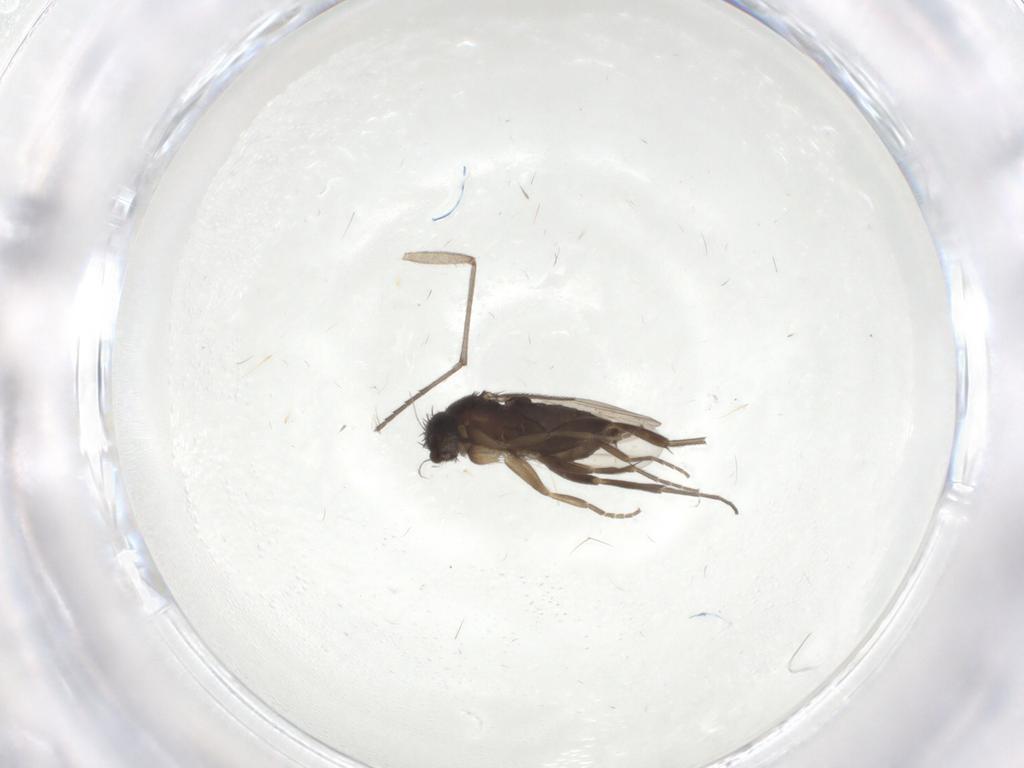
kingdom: Animalia
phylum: Arthropoda
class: Insecta
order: Diptera
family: Phoridae
